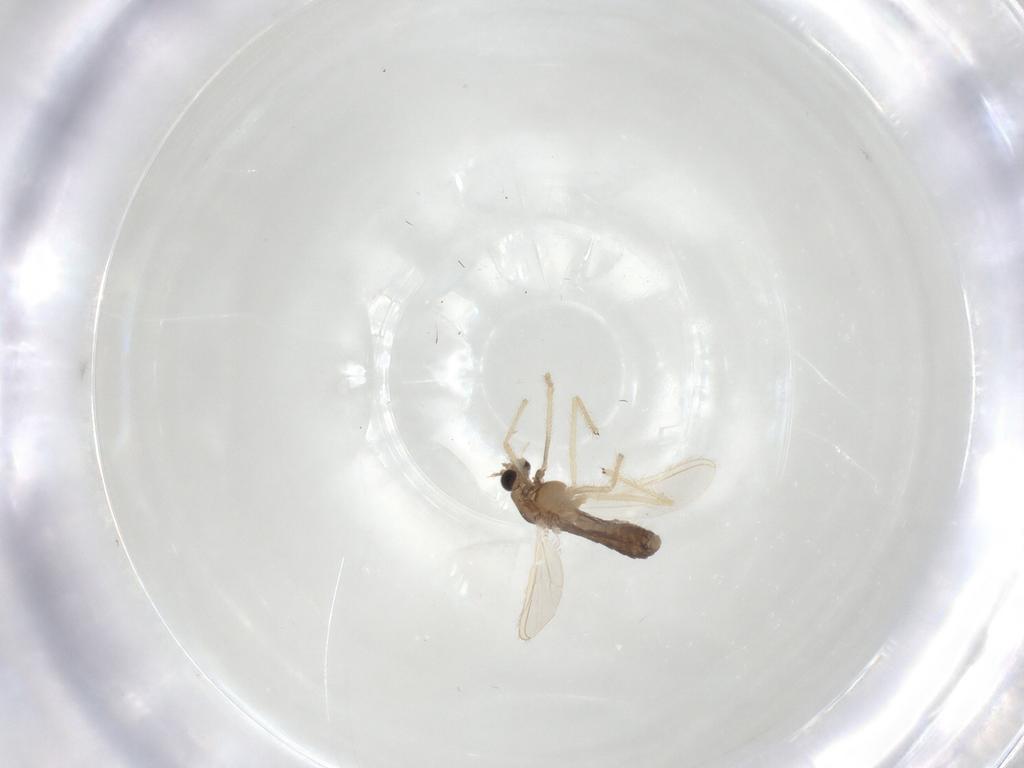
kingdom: Animalia
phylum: Arthropoda
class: Insecta
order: Diptera
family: Chironomidae
